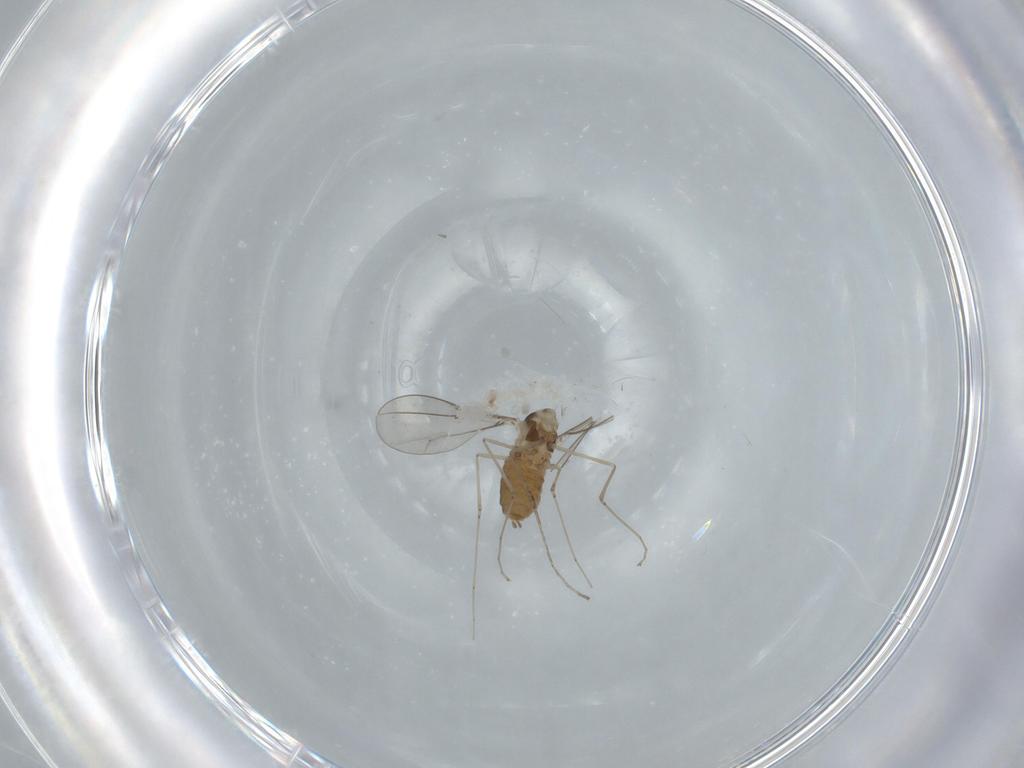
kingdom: Animalia
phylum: Arthropoda
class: Insecta
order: Diptera
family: Cecidomyiidae
